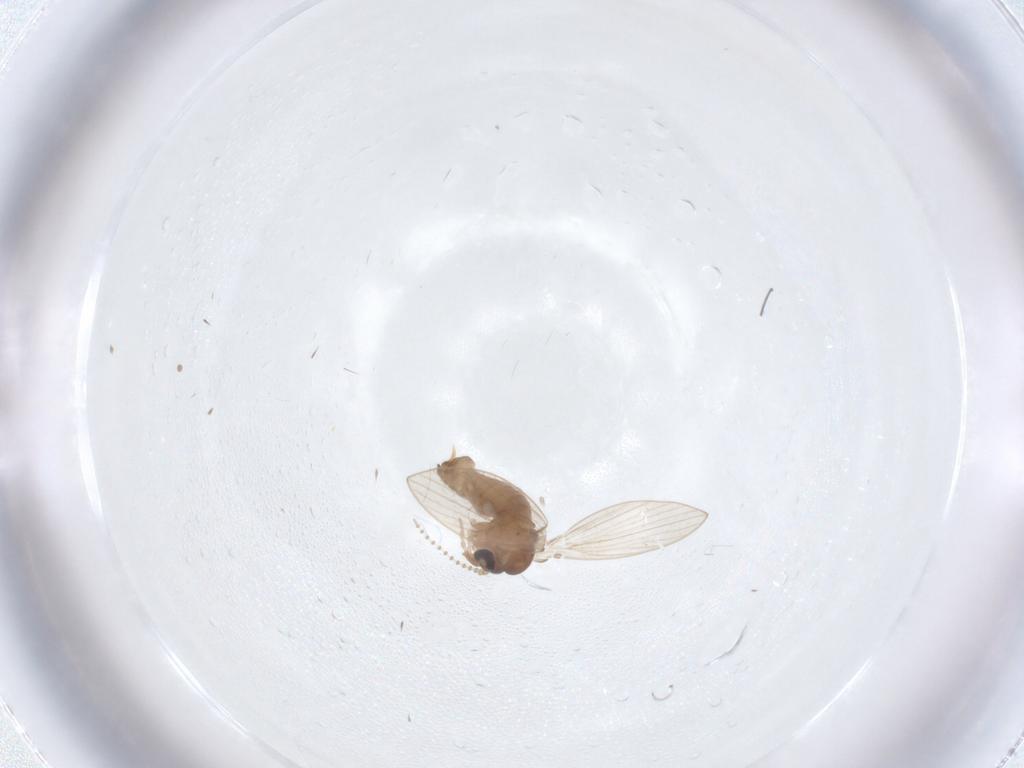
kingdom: Animalia
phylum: Arthropoda
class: Insecta
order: Diptera
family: Psychodidae
